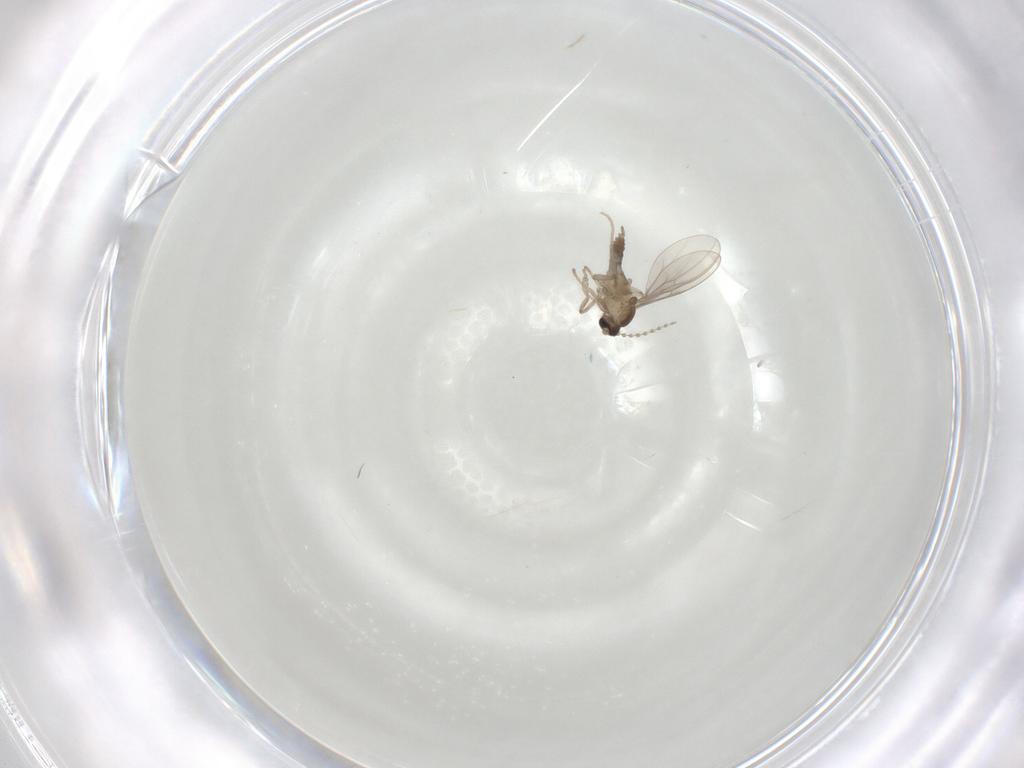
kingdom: Animalia
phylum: Arthropoda
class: Insecta
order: Diptera
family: Cecidomyiidae
